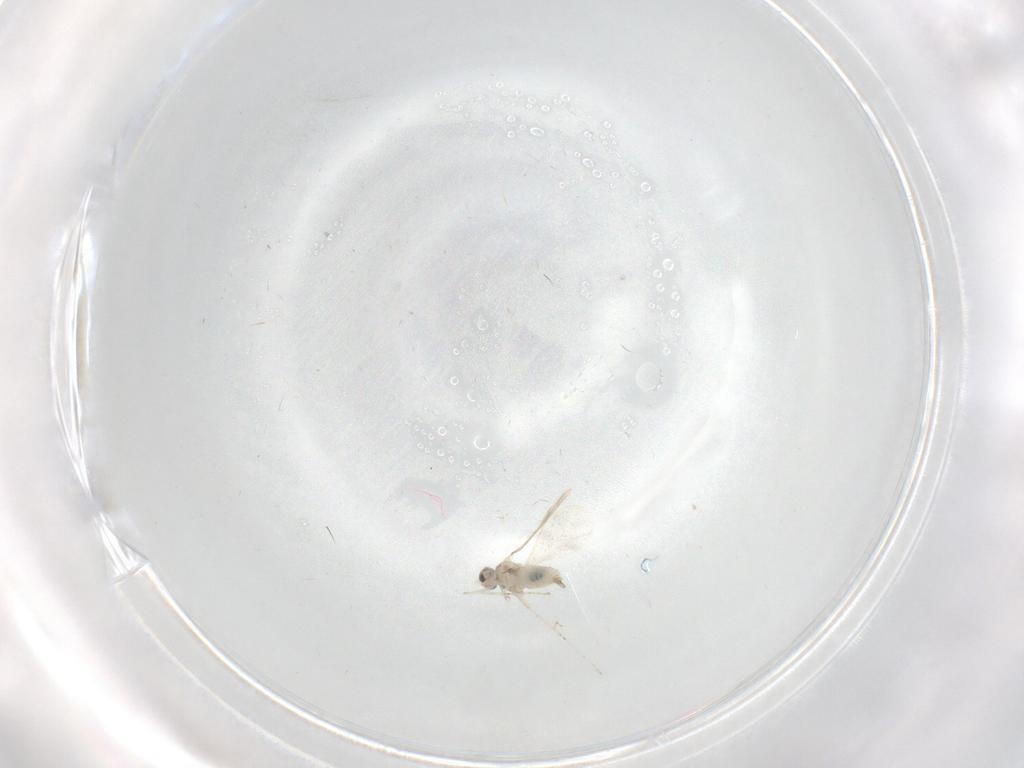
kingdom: Animalia
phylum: Arthropoda
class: Insecta
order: Diptera
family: Cecidomyiidae
